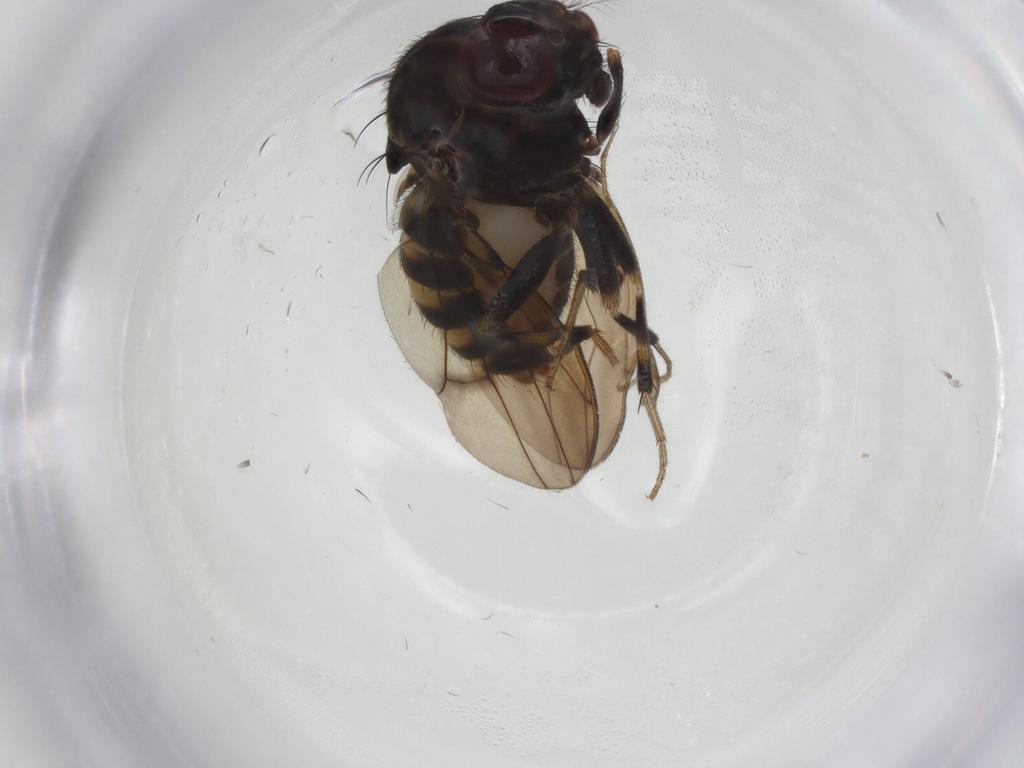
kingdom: Animalia
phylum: Arthropoda
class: Insecta
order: Diptera
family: Drosophilidae
